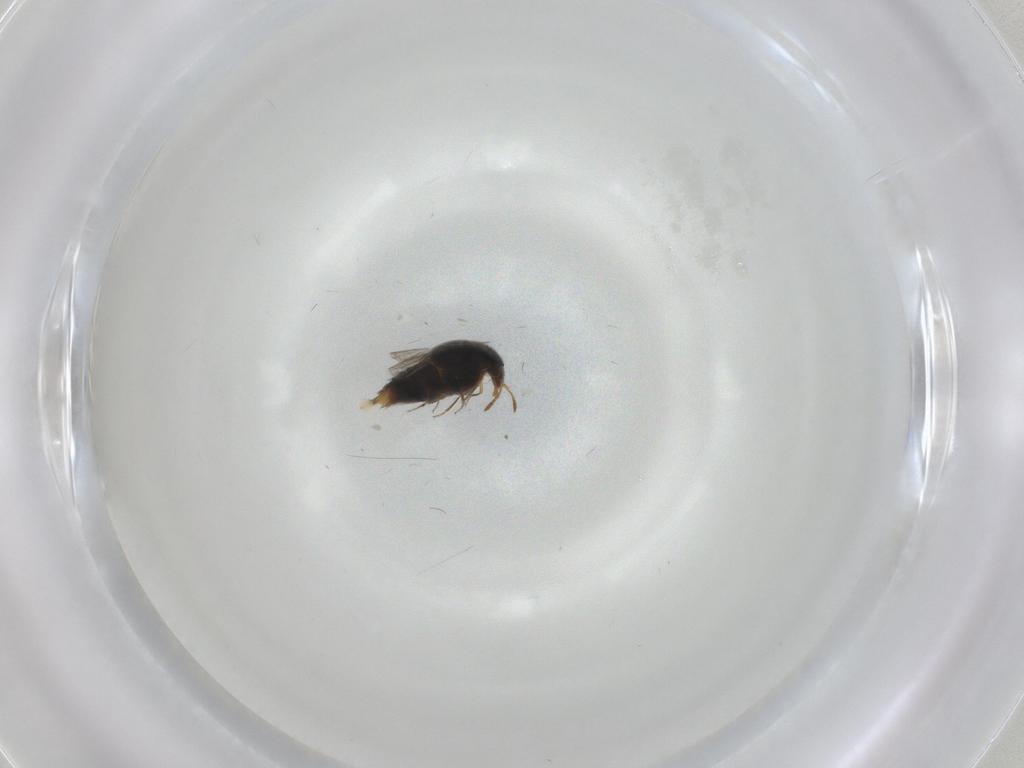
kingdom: Animalia
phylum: Arthropoda
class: Insecta
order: Coleoptera
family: Staphylinidae
